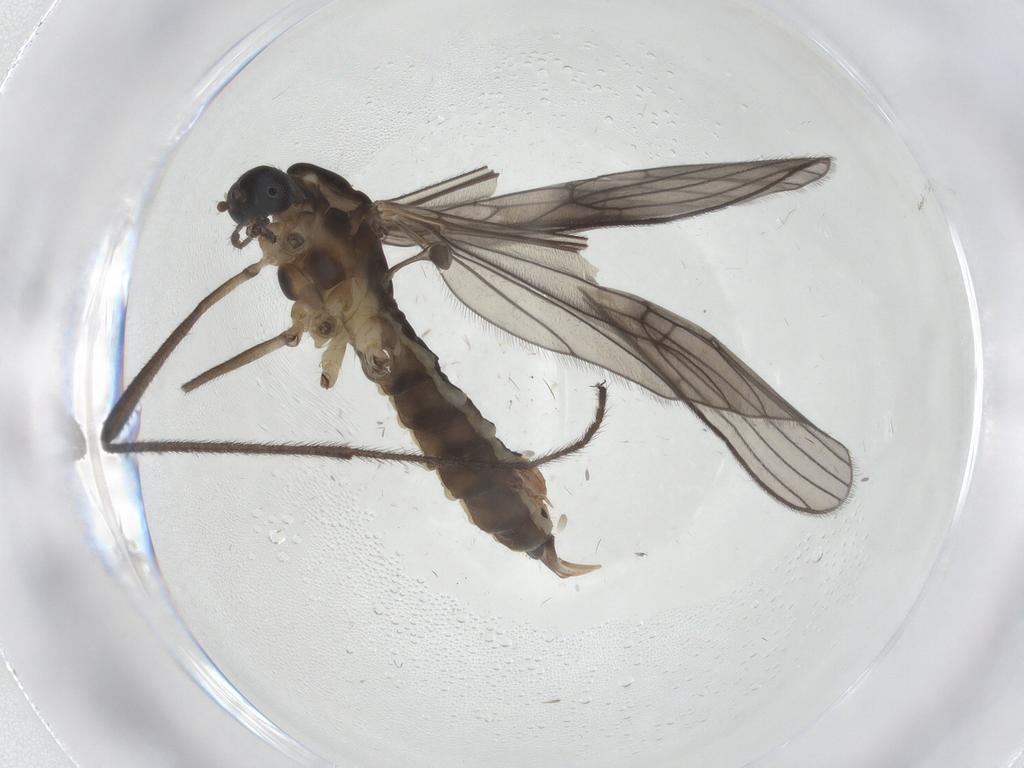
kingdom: Animalia
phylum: Arthropoda
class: Insecta
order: Diptera
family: Limoniidae
